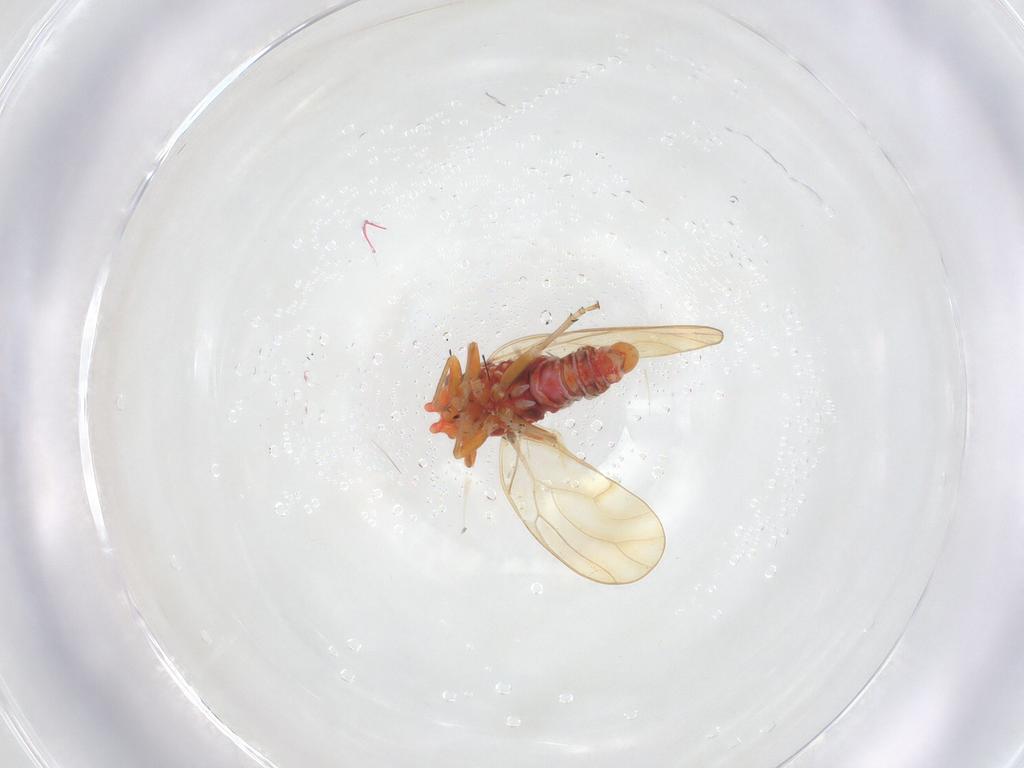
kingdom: Animalia
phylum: Arthropoda
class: Insecta
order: Hemiptera
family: Psyllidae
